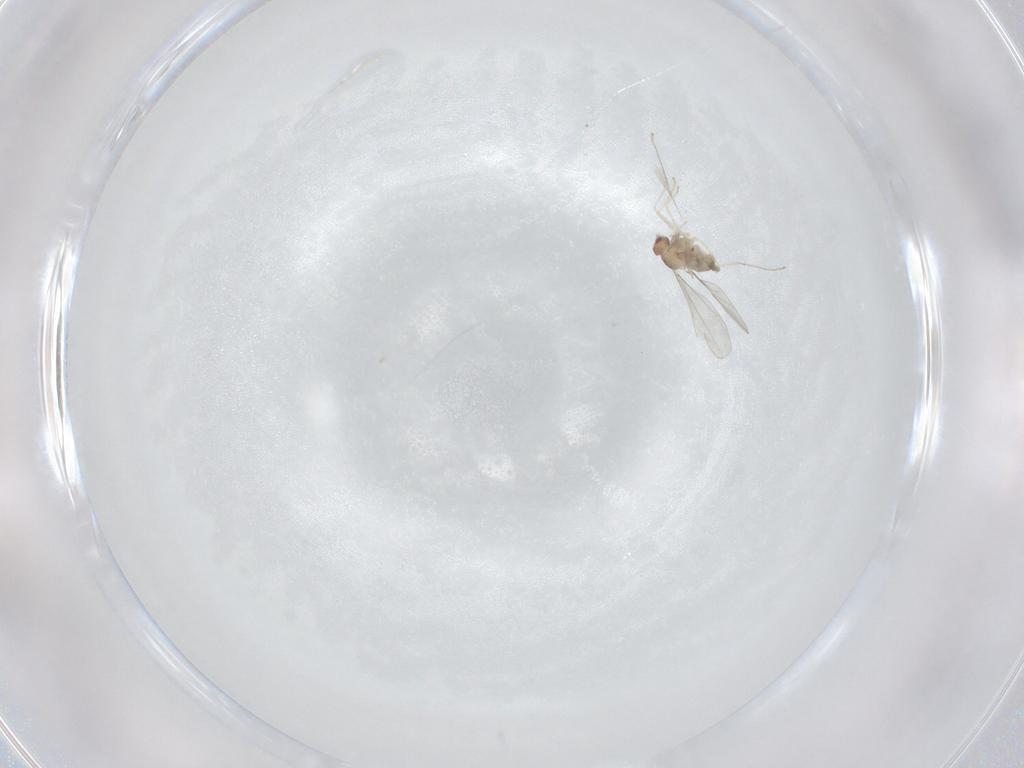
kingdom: Animalia
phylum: Arthropoda
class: Insecta
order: Diptera
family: Cecidomyiidae
